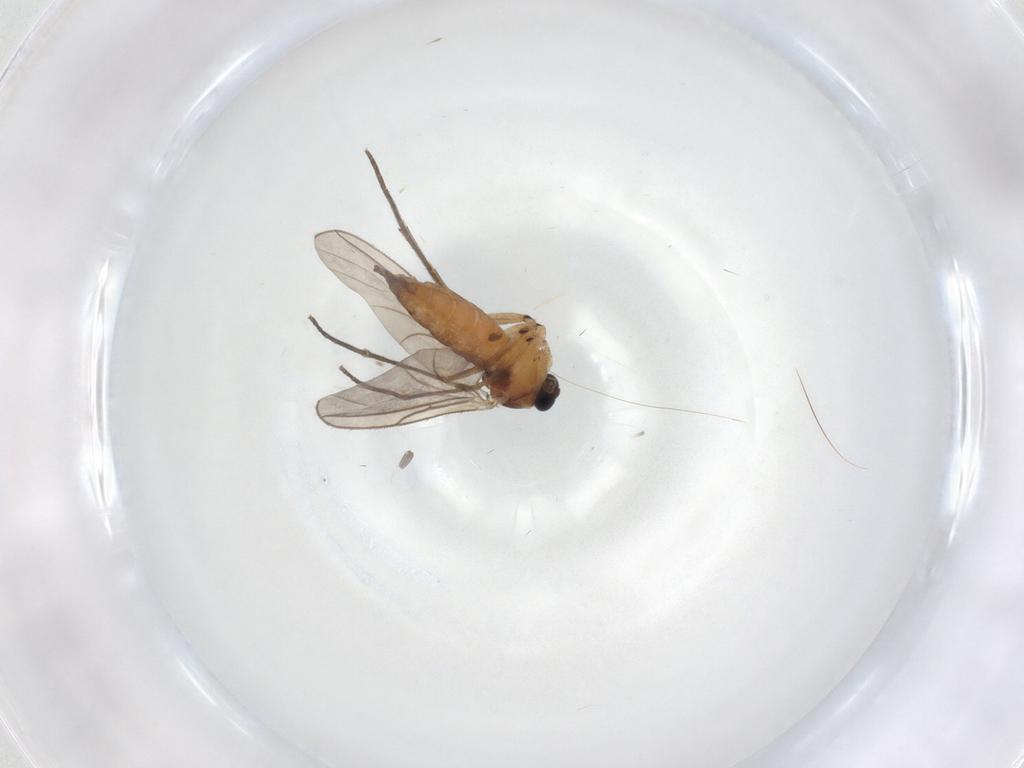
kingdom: Animalia
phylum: Arthropoda
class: Insecta
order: Diptera
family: Sciaridae
